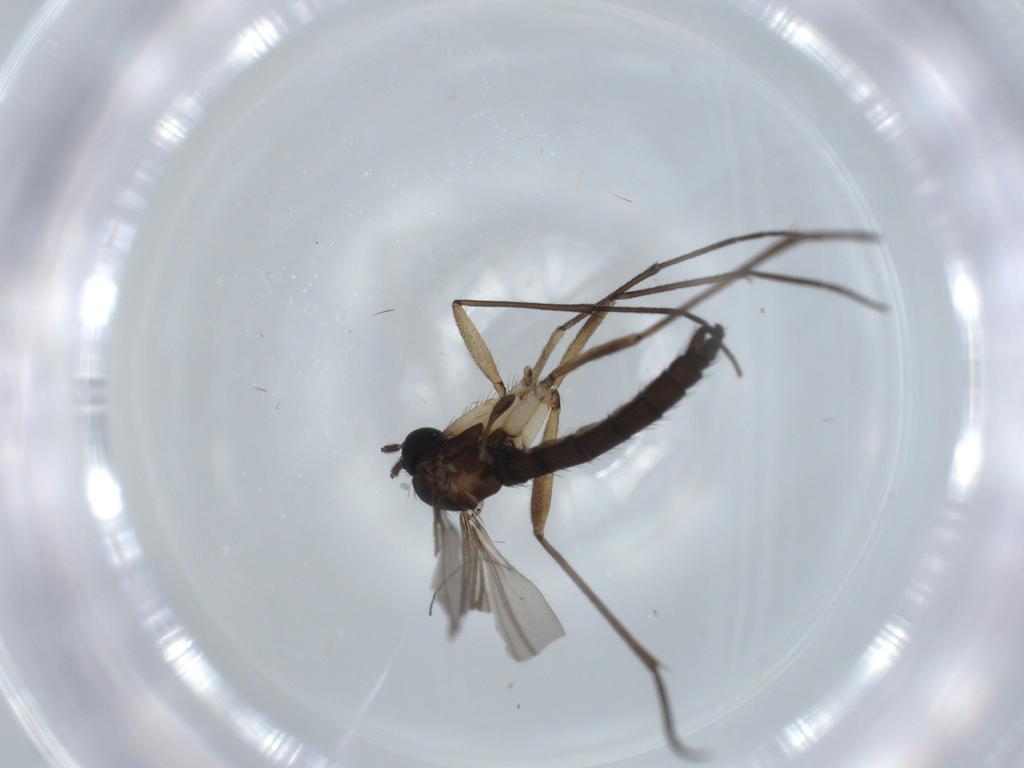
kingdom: Animalia
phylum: Arthropoda
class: Insecta
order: Diptera
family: Sciaridae
